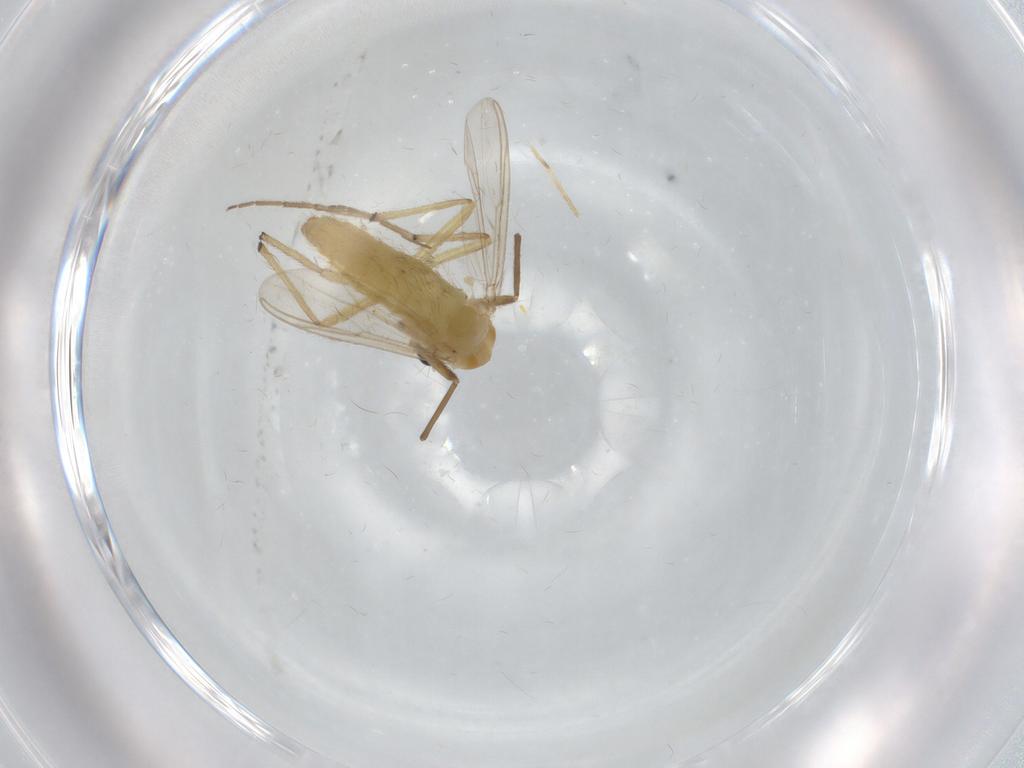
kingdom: Animalia
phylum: Arthropoda
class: Insecta
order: Diptera
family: Chironomidae
